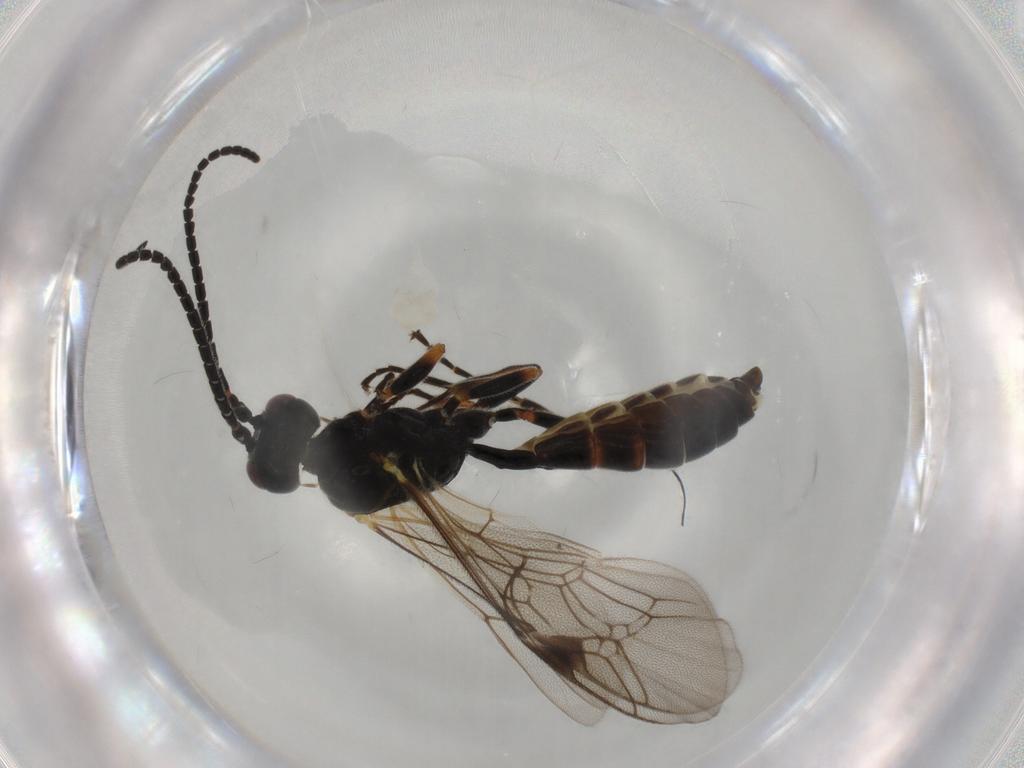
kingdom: Animalia
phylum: Arthropoda
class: Insecta
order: Hymenoptera
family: Ichneumonidae
